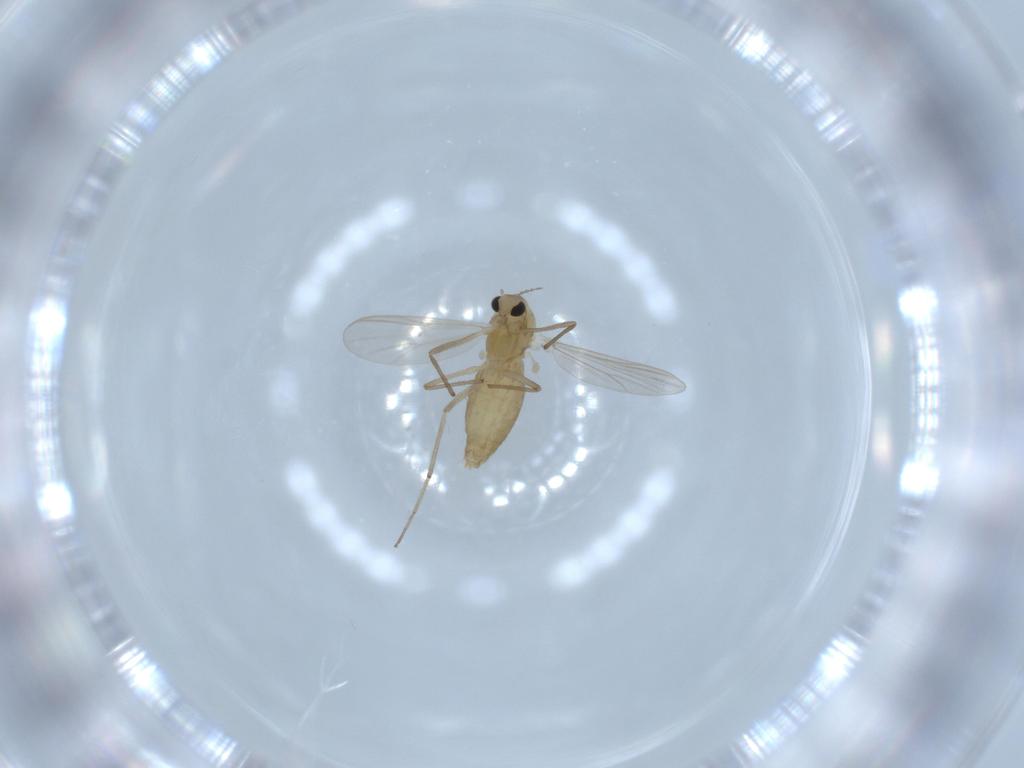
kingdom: Animalia
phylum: Arthropoda
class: Insecta
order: Diptera
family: Chironomidae
